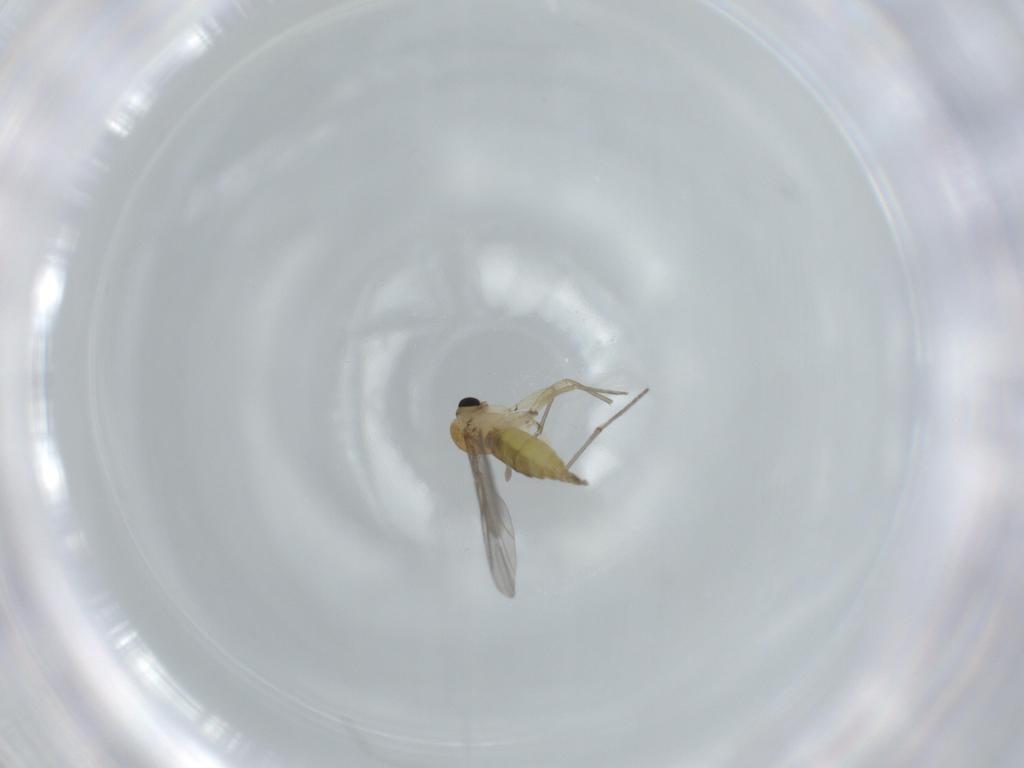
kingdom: Animalia
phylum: Arthropoda
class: Insecta
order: Diptera
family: Sciaridae
